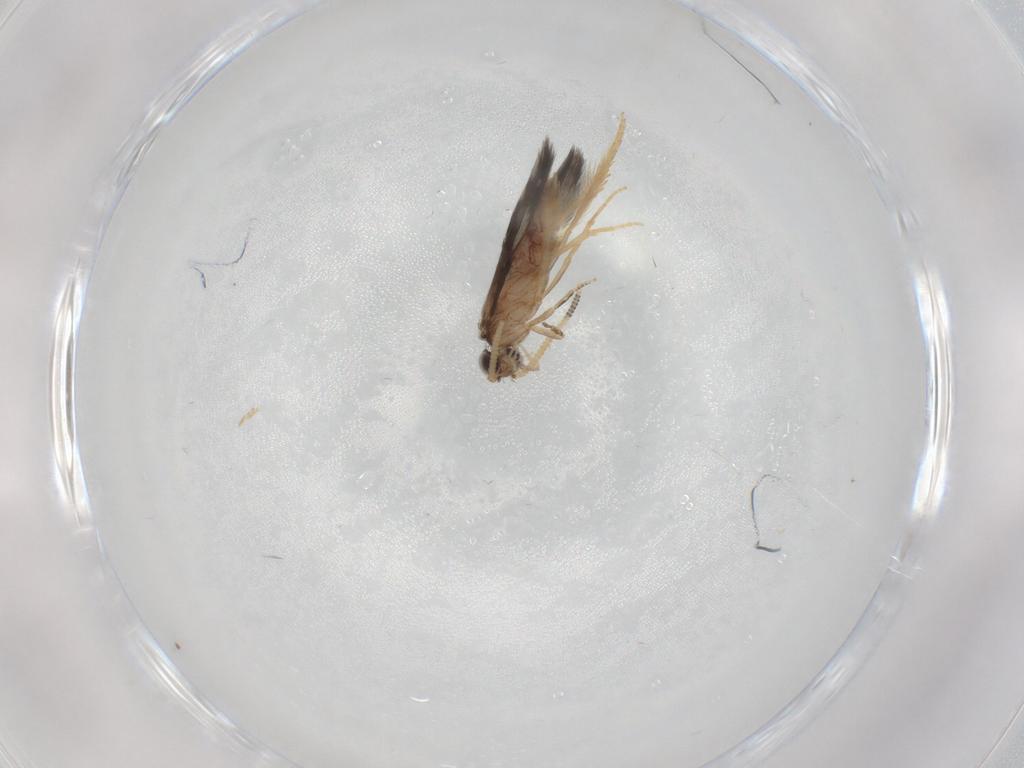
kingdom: Animalia
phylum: Arthropoda
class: Insecta
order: Trichoptera
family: Hydroptilidae
